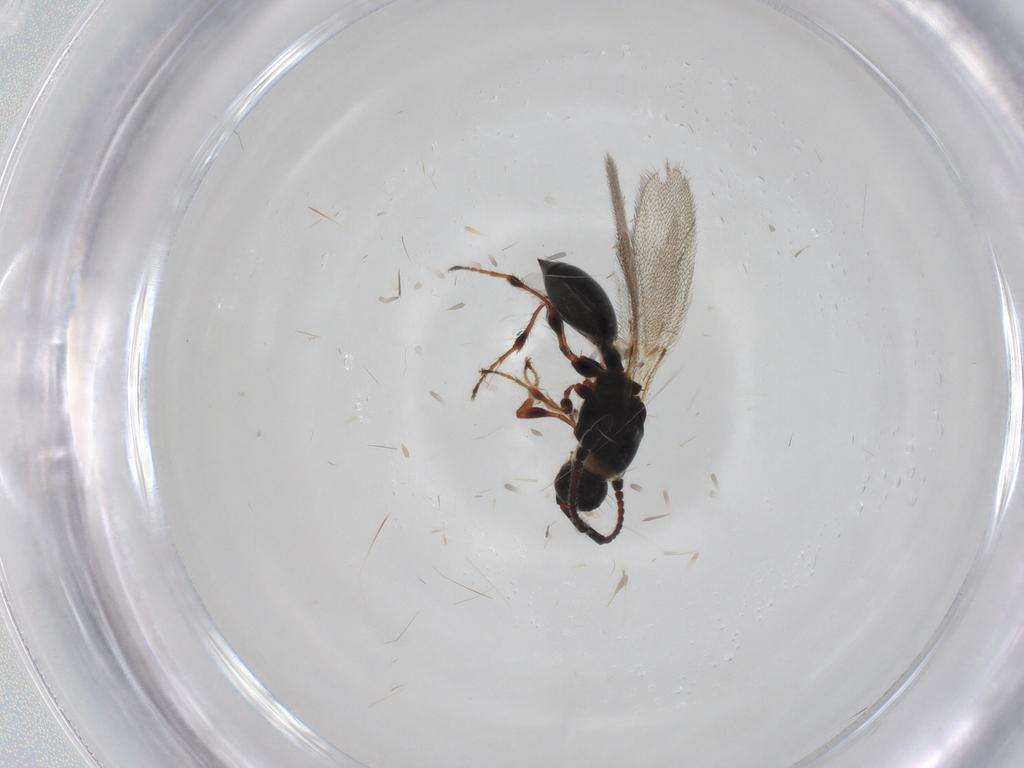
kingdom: Animalia
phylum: Arthropoda
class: Insecta
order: Hymenoptera
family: Diapriidae
